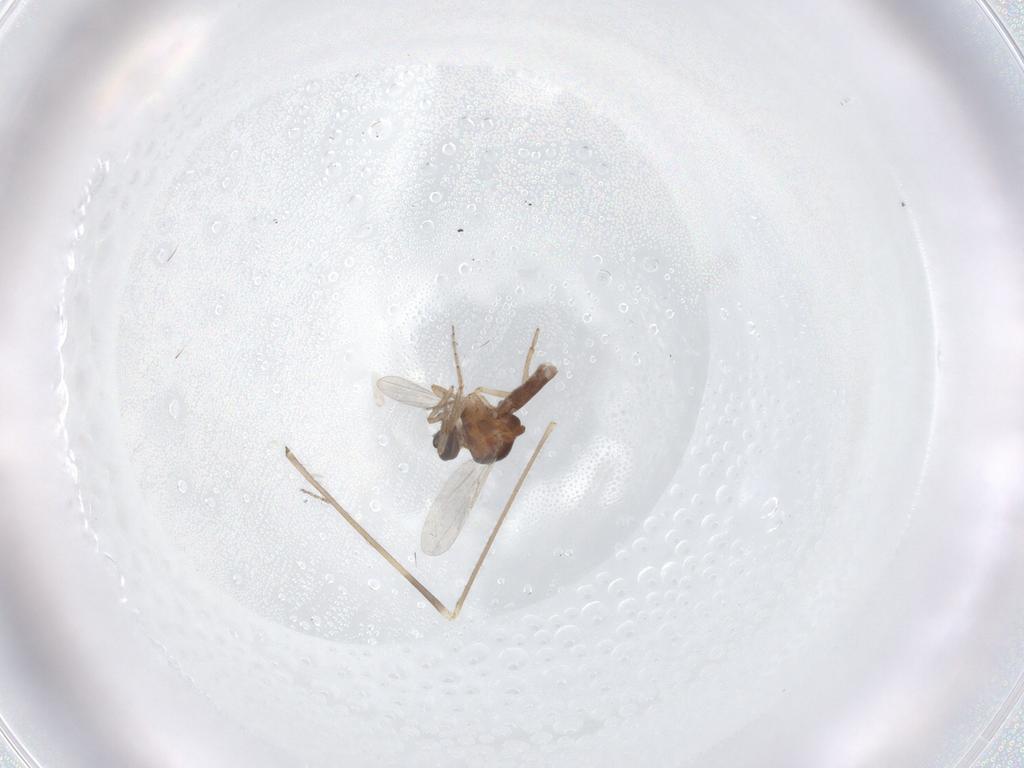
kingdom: Animalia
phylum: Arthropoda
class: Insecta
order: Diptera
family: Ceratopogonidae
